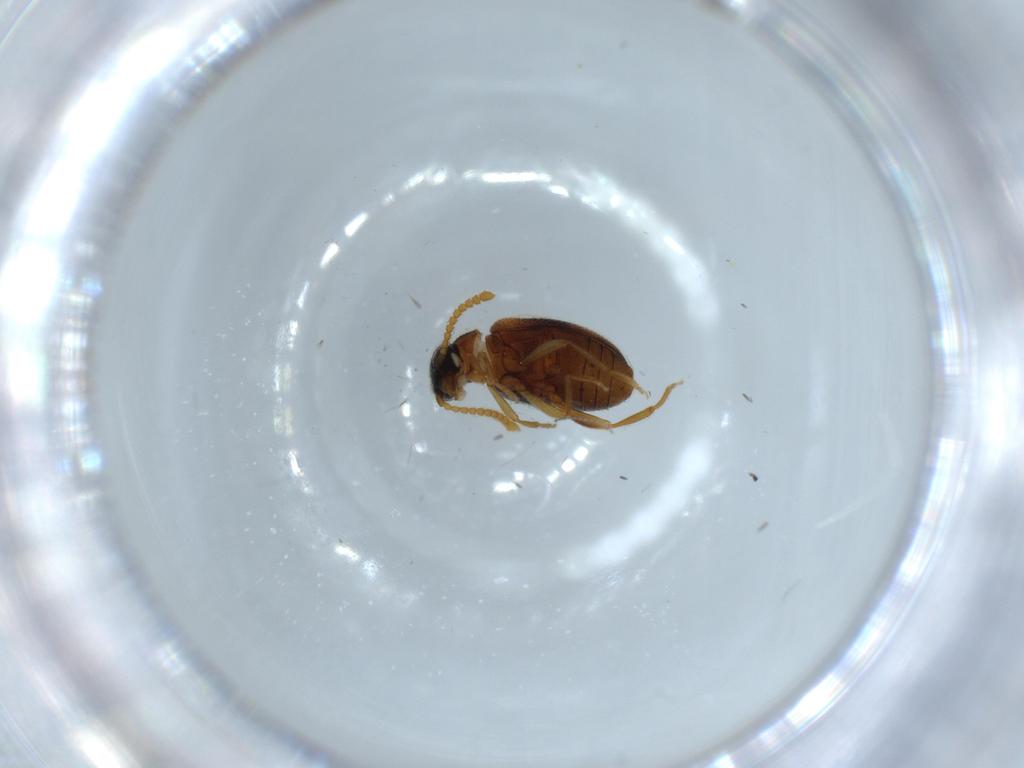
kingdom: Animalia
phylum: Arthropoda
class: Insecta
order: Coleoptera
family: Aderidae
